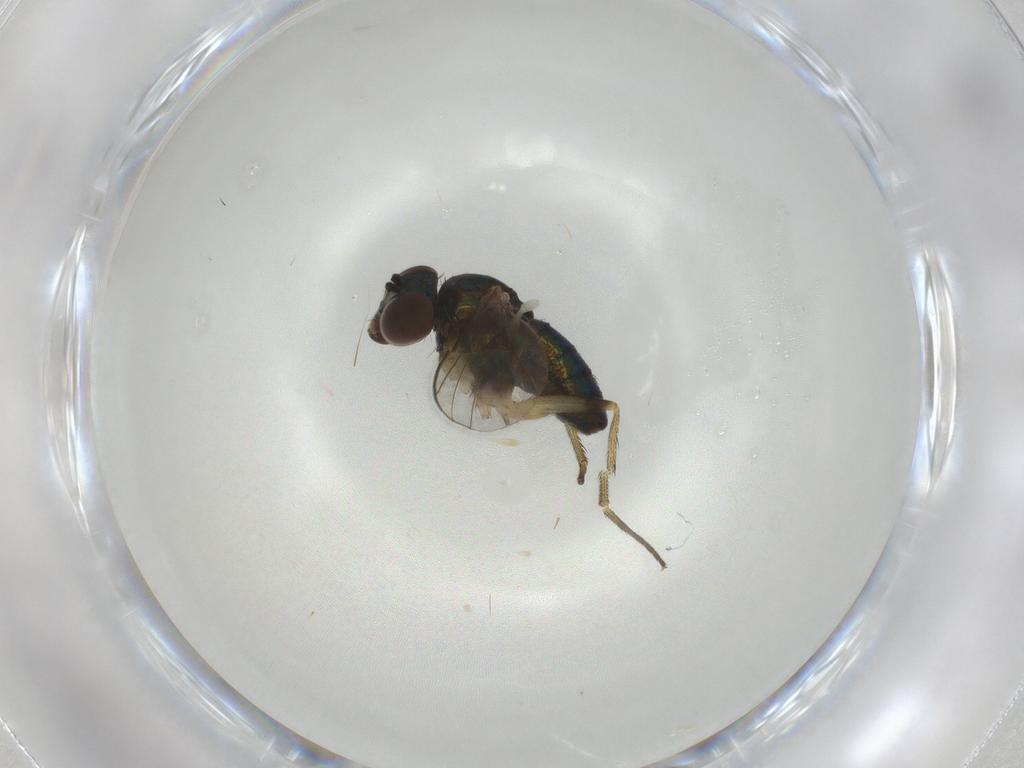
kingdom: Animalia
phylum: Arthropoda
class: Insecta
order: Diptera
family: Dolichopodidae
